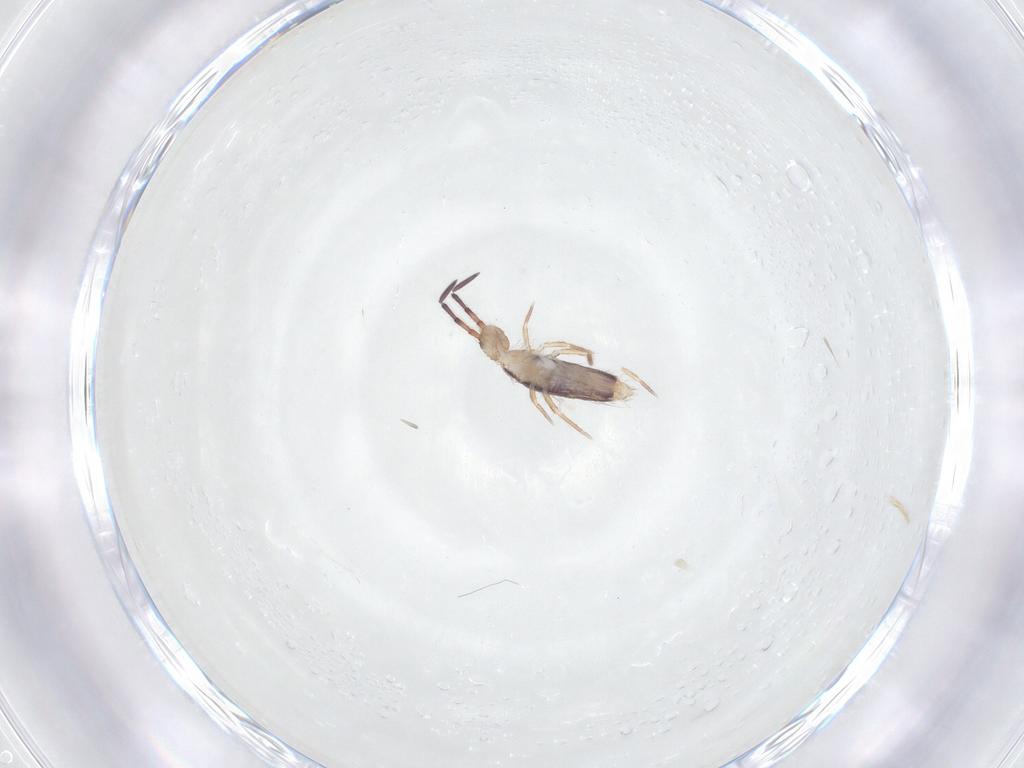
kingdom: Animalia
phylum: Arthropoda
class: Collembola
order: Entomobryomorpha
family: Entomobryidae
